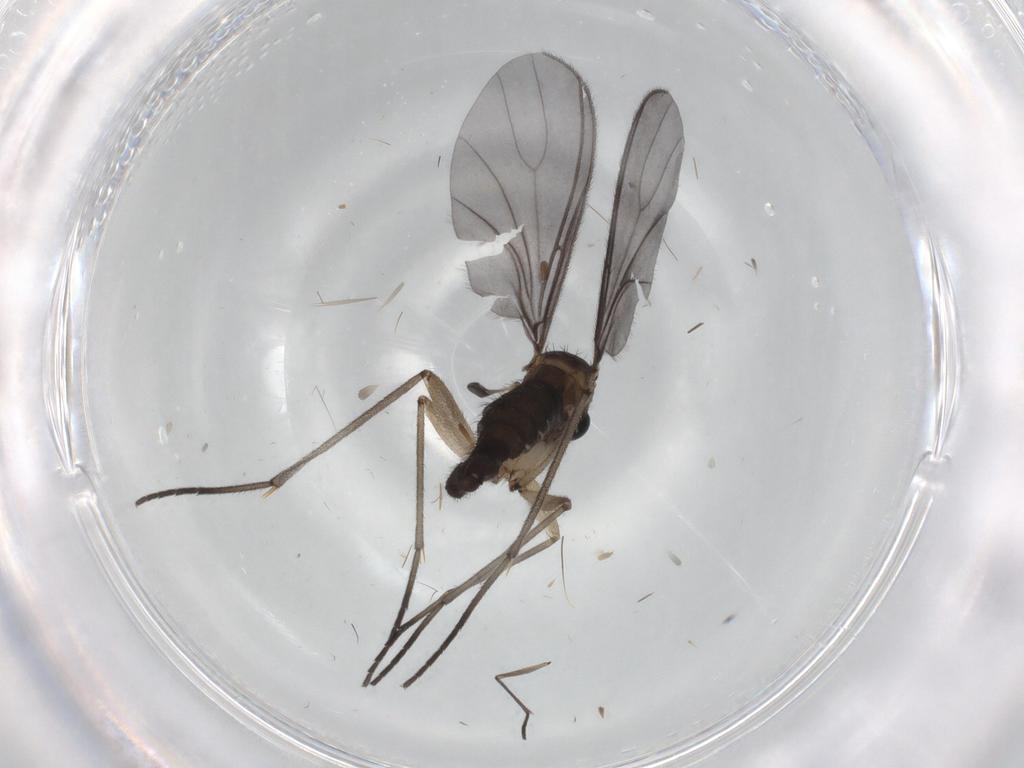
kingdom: Animalia
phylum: Arthropoda
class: Insecta
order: Diptera
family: Sciaridae
